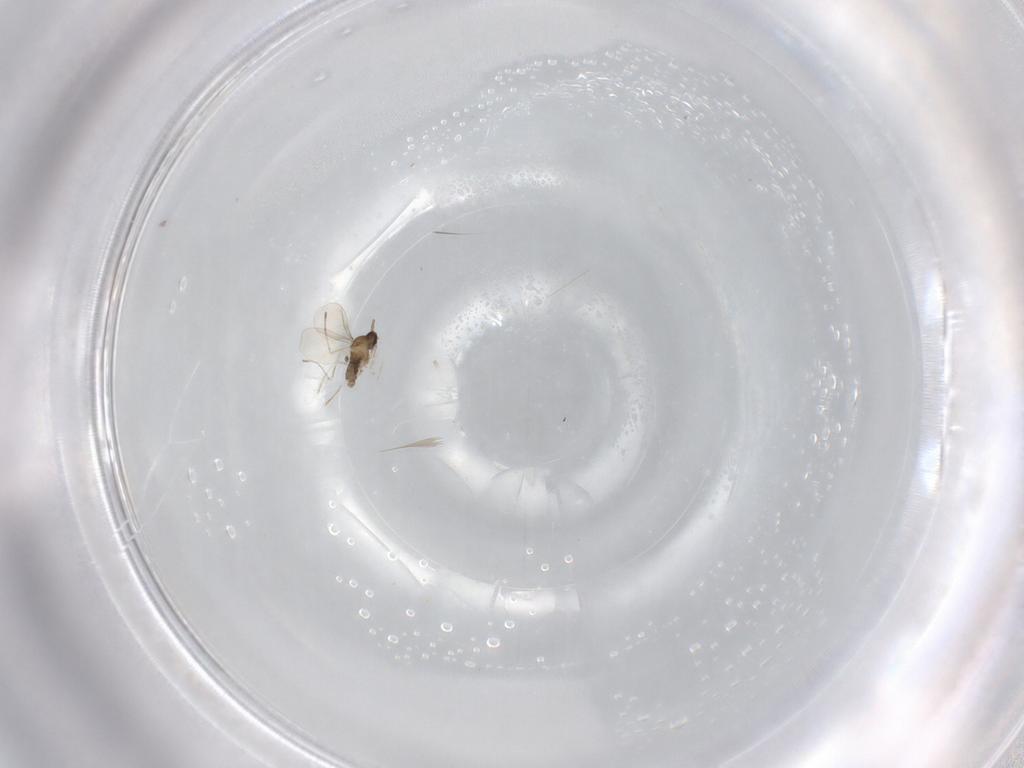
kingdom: Animalia
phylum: Arthropoda
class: Insecta
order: Diptera
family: Cecidomyiidae
